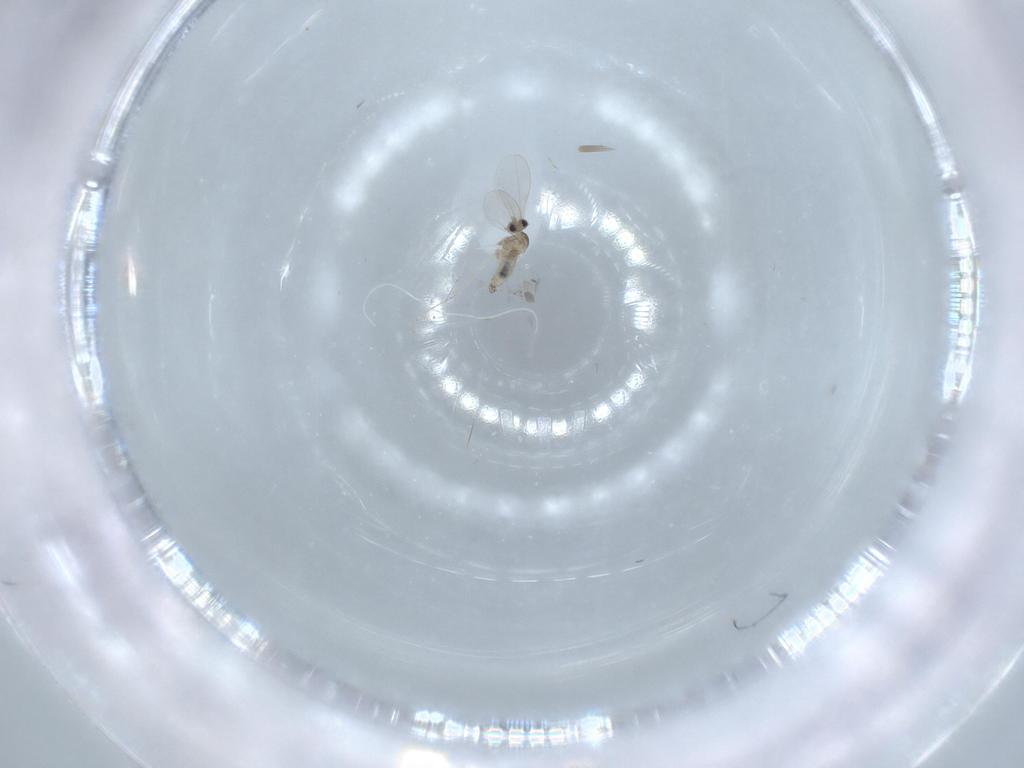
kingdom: Animalia
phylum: Arthropoda
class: Insecta
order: Diptera
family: Cecidomyiidae
